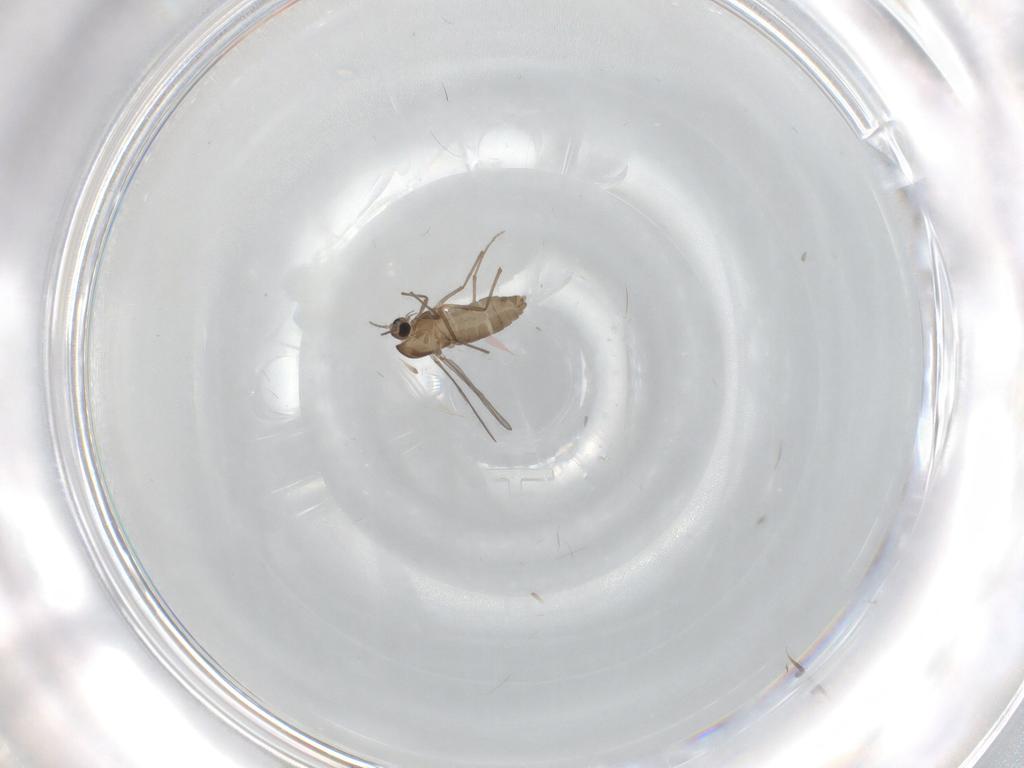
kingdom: Animalia
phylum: Arthropoda
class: Insecta
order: Diptera
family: Chironomidae
